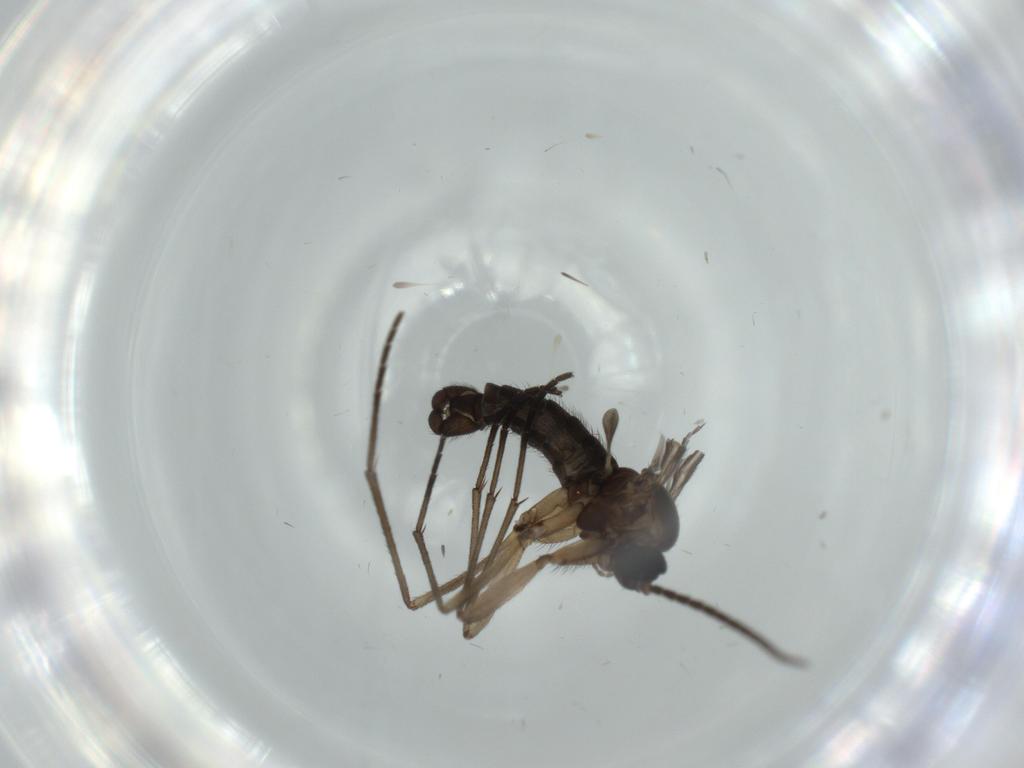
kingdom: Animalia
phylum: Arthropoda
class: Insecta
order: Diptera
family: Sciaridae
